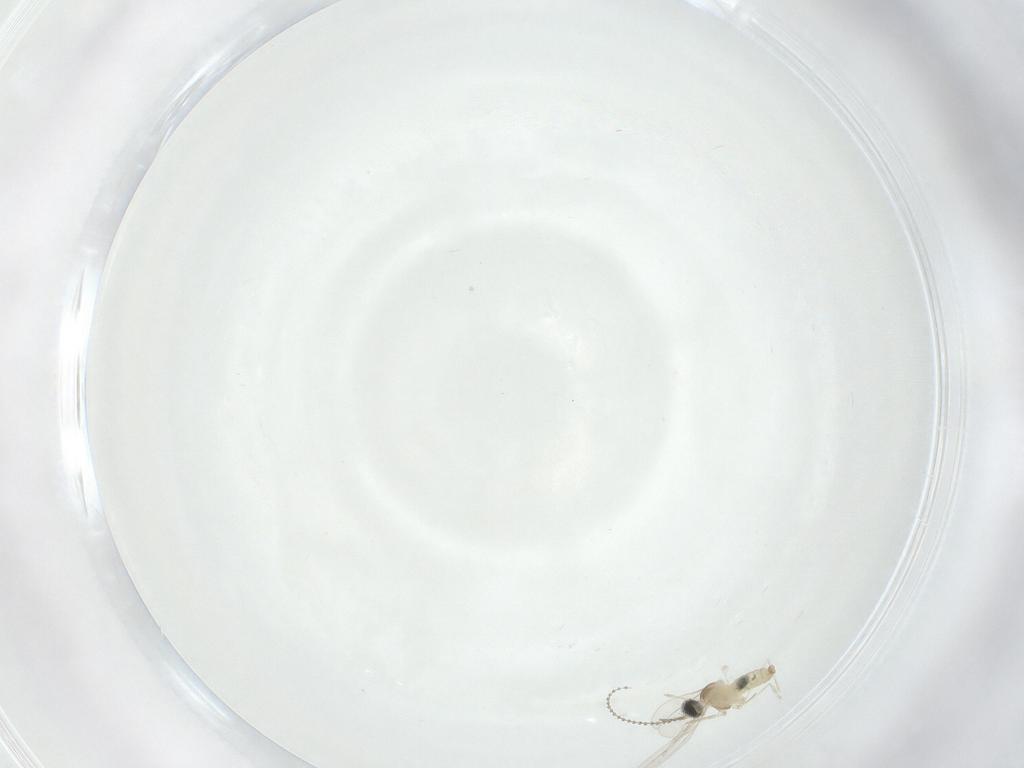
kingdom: Animalia
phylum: Arthropoda
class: Insecta
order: Diptera
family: Cecidomyiidae
